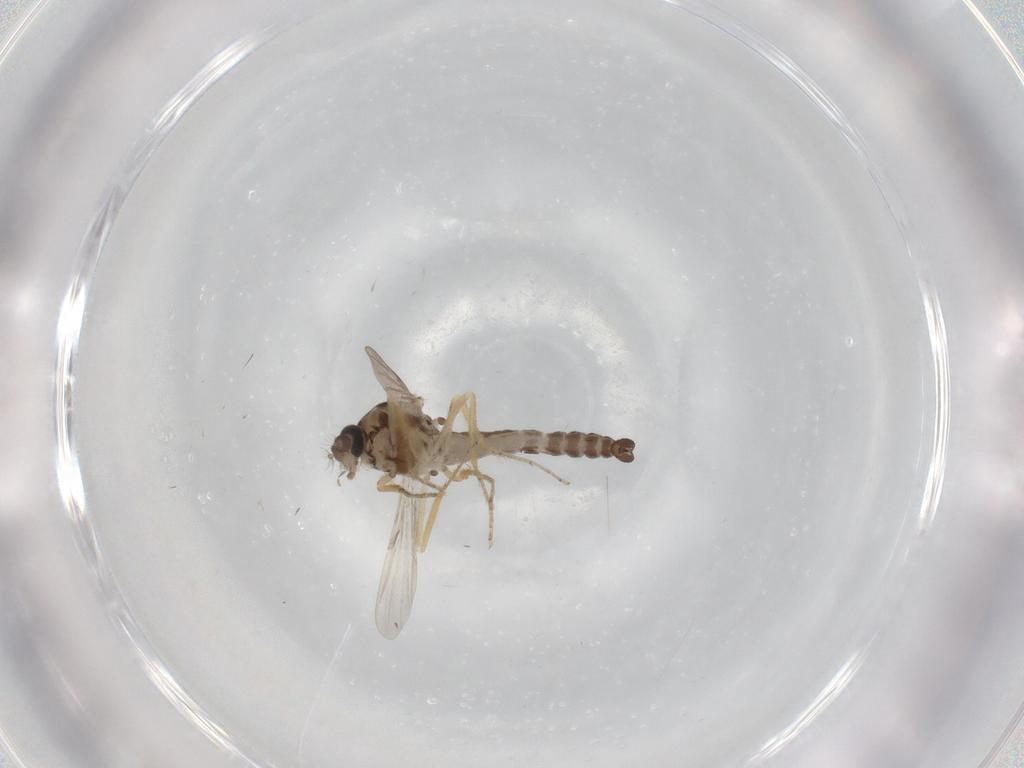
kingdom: Animalia
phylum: Arthropoda
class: Insecta
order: Diptera
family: Ceratopogonidae
